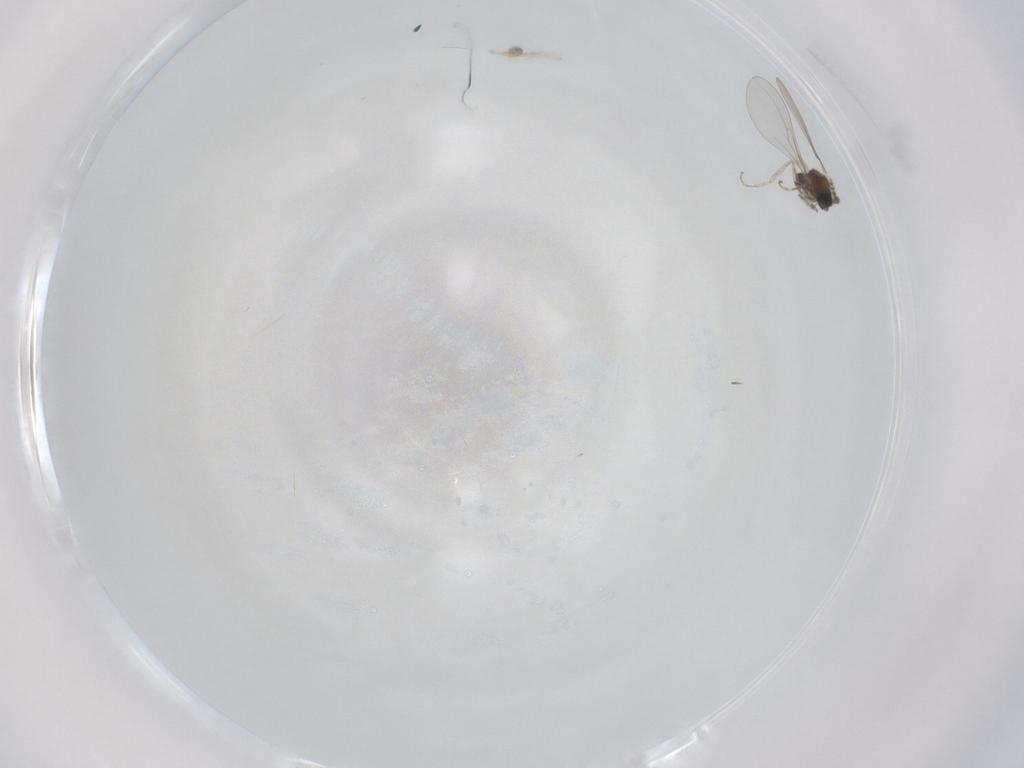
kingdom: Animalia
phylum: Arthropoda
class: Insecta
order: Diptera
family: Cecidomyiidae
